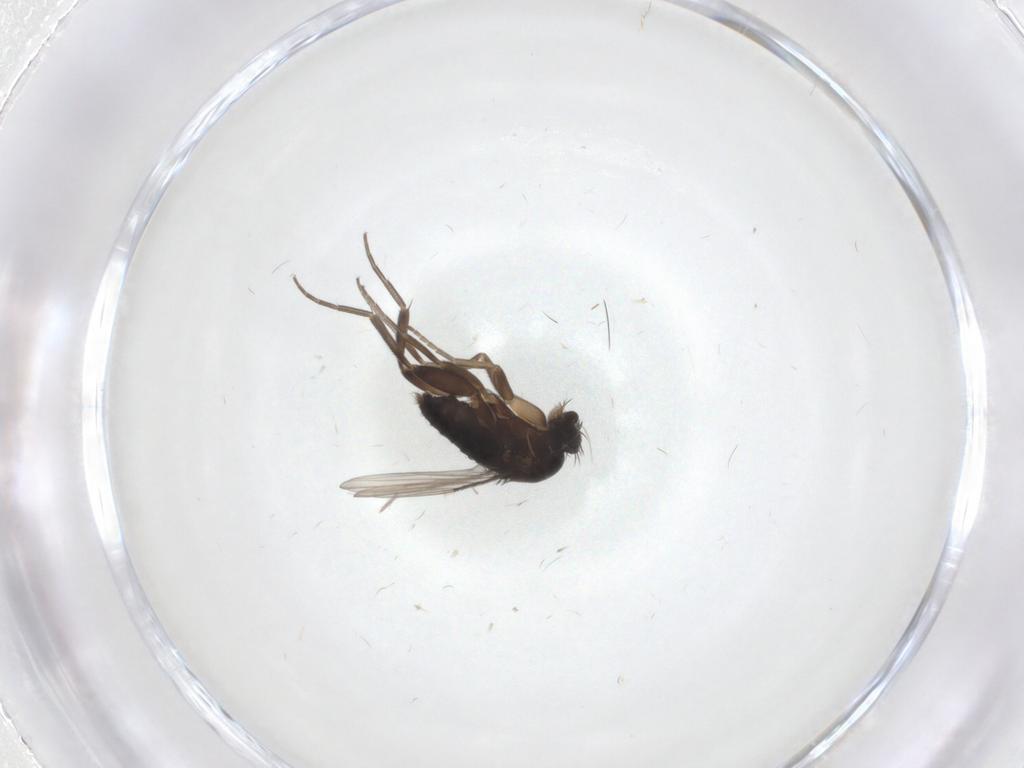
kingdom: Animalia
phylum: Arthropoda
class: Insecta
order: Diptera
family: Phoridae
